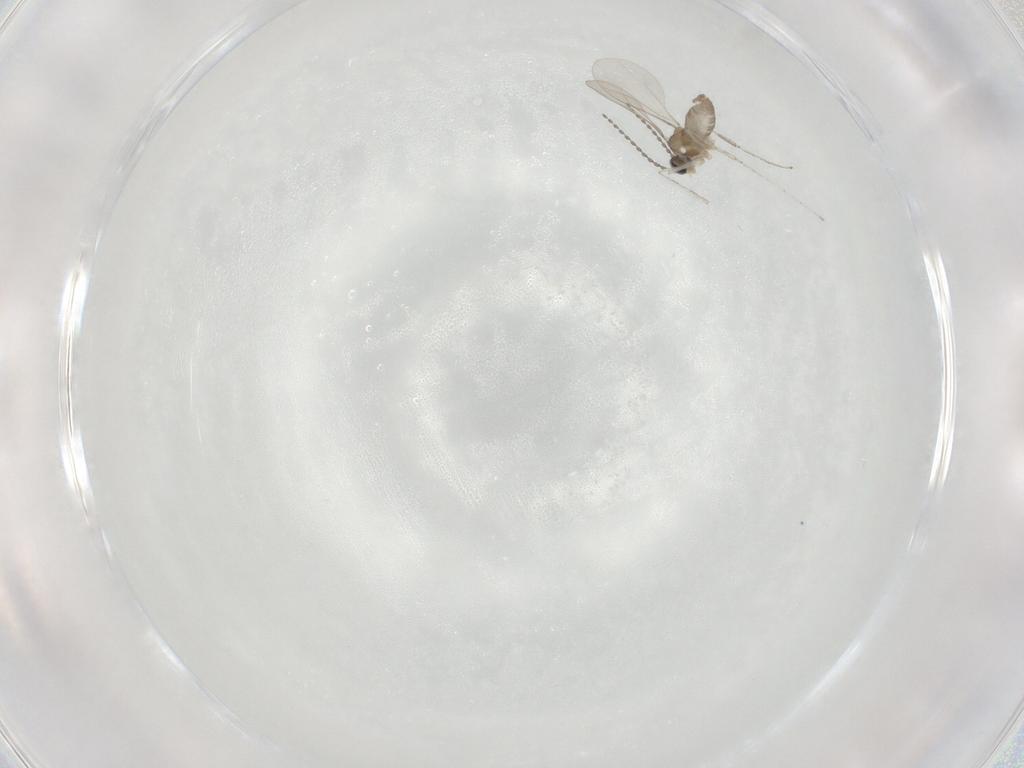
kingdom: Animalia
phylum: Arthropoda
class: Insecta
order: Diptera
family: Cecidomyiidae
